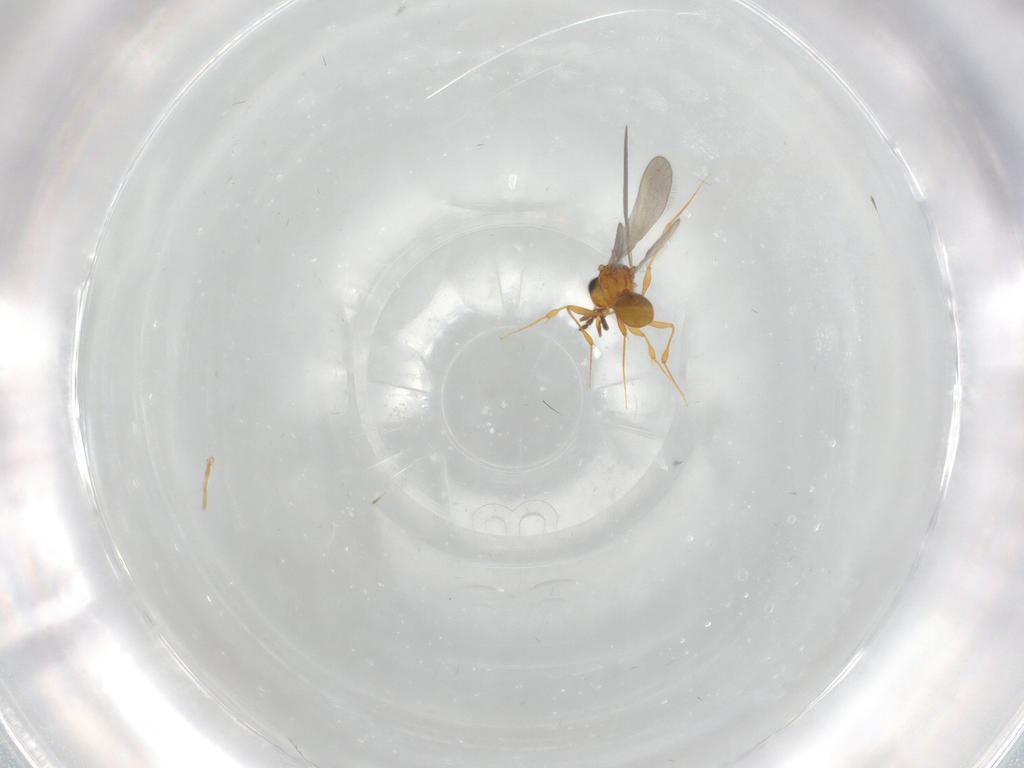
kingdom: Animalia
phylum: Arthropoda
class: Insecta
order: Hymenoptera
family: Platygastridae
